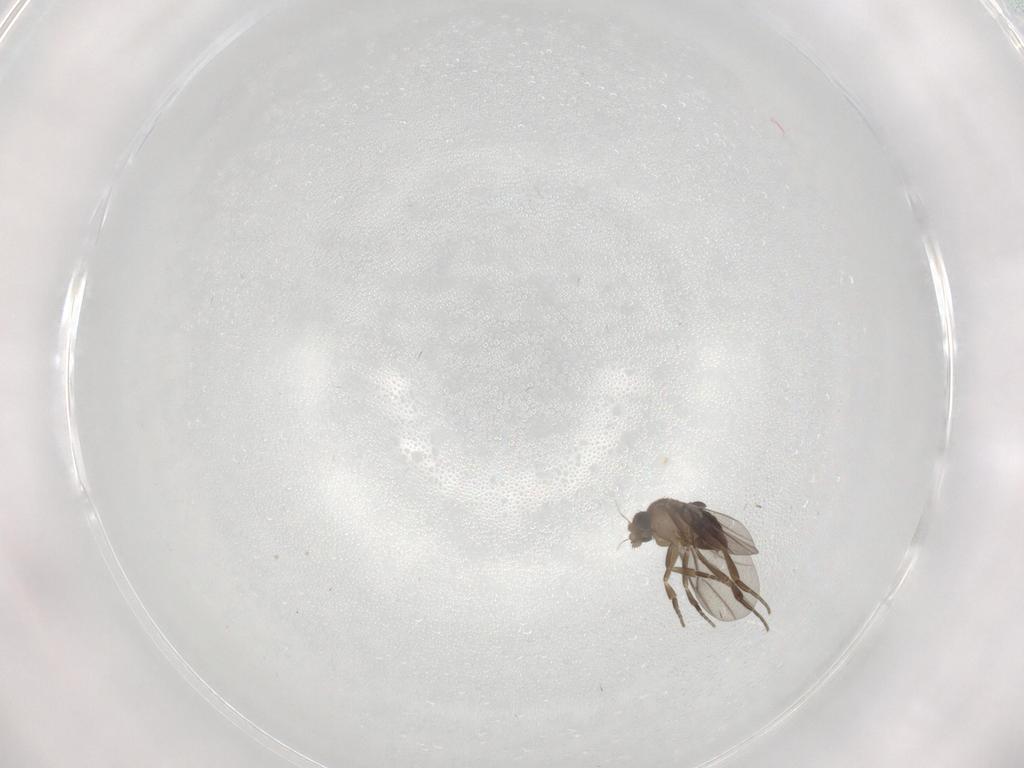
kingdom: Animalia
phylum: Arthropoda
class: Insecta
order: Diptera
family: Phoridae
